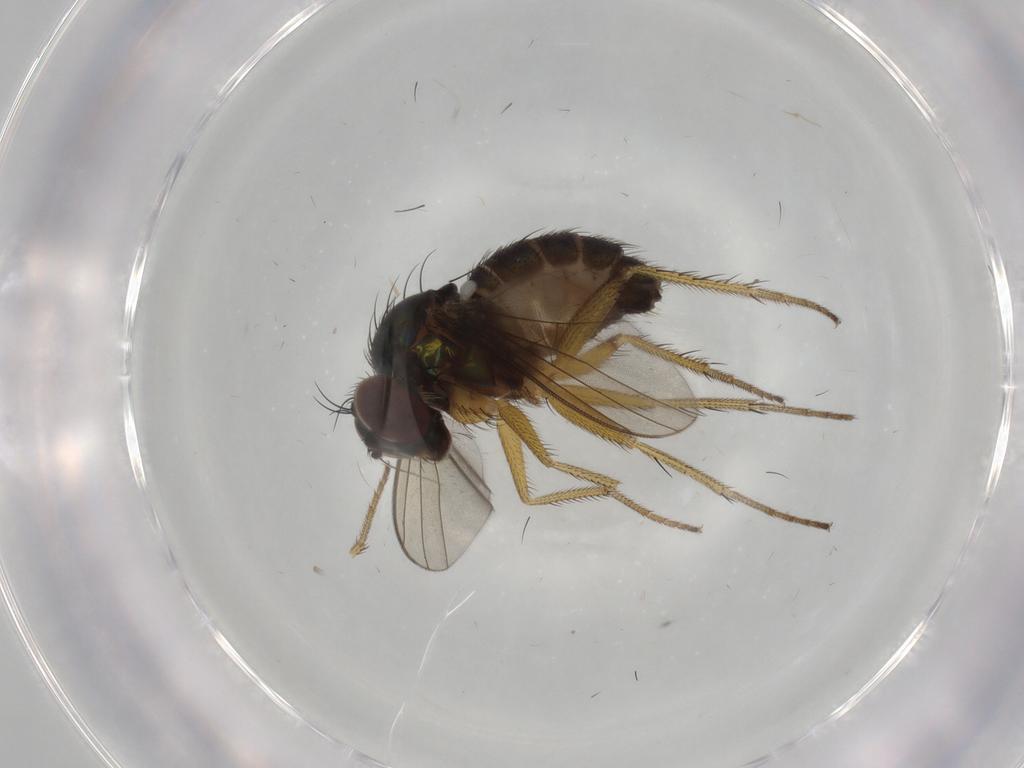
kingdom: Animalia
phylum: Arthropoda
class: Insecta
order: Diptera
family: Dolichopodidae
